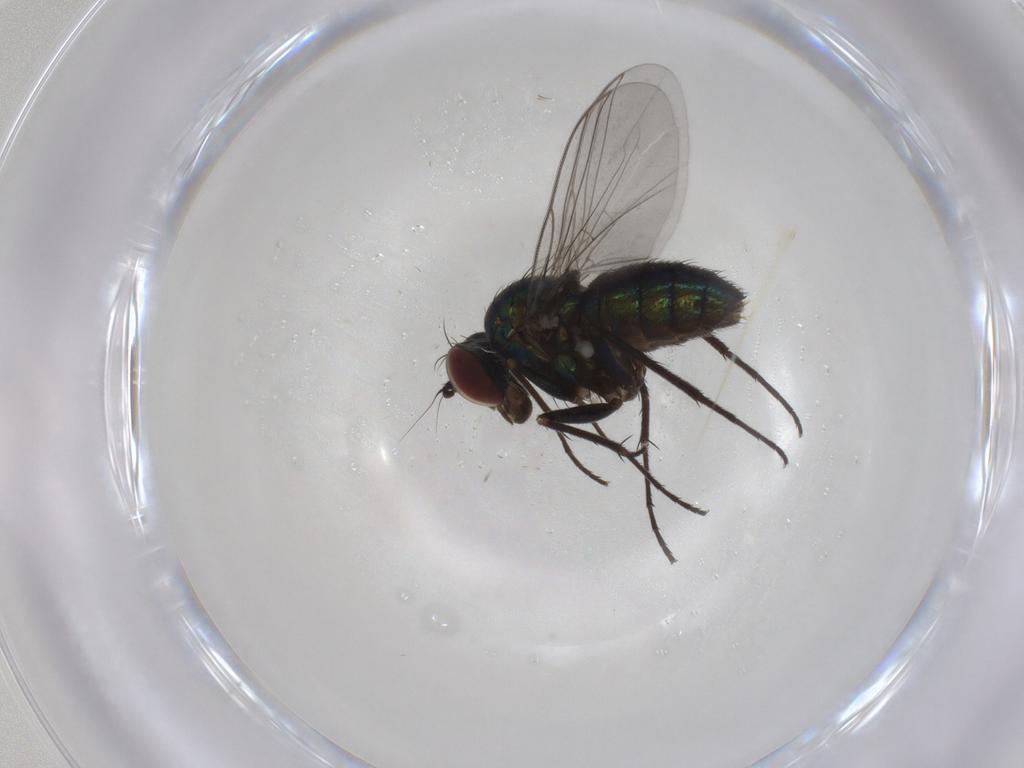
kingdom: Animalia
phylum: Arthropoda
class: Insecta
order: Diptera
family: Dolichopodidae
